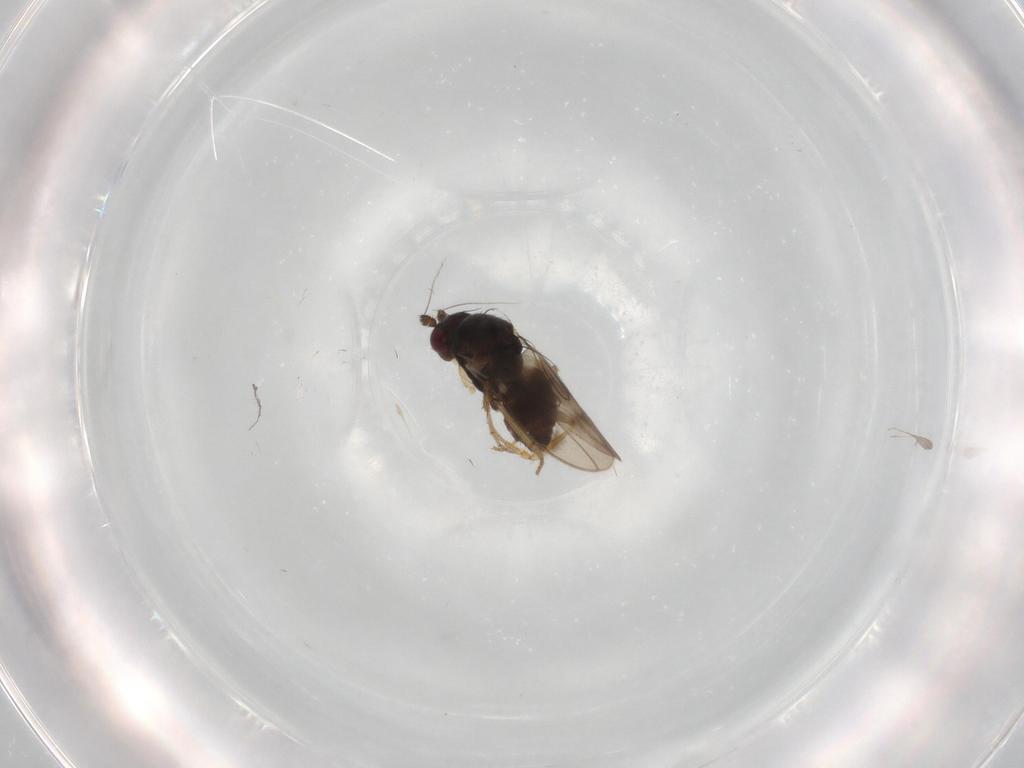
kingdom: Animalia
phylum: Arthropoda
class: Insecta
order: Diptera
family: Sphaeroceridae
